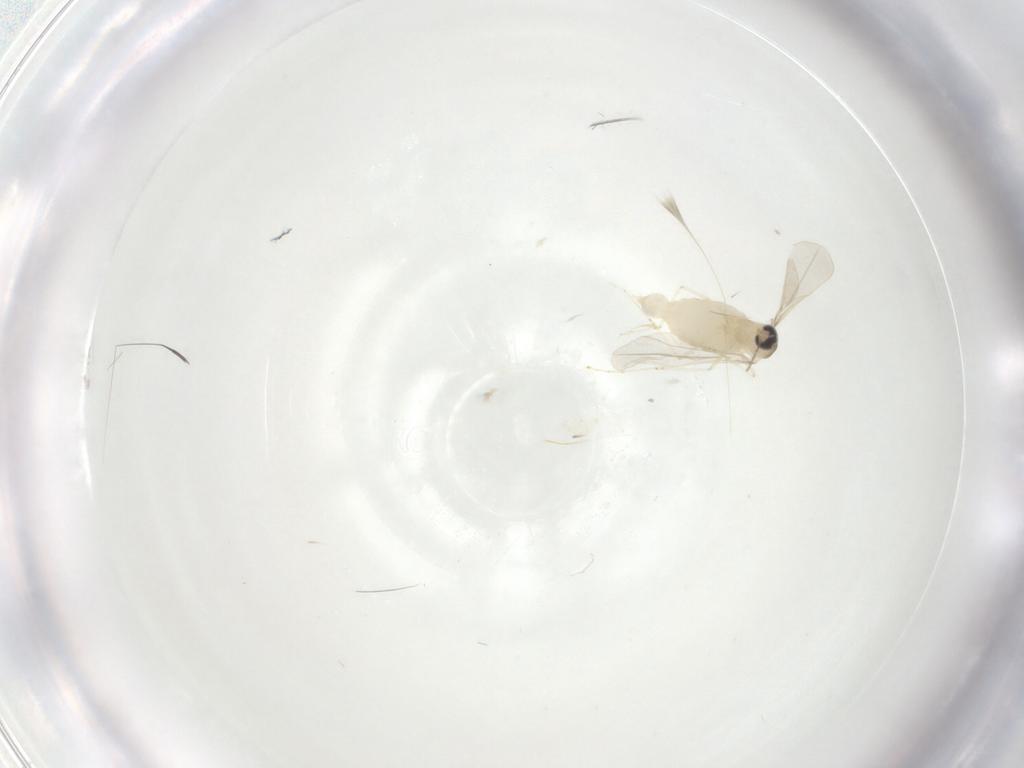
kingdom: Animalia
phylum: Arthropoda
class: Insecta
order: Diptera
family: Cecidomyiidae
